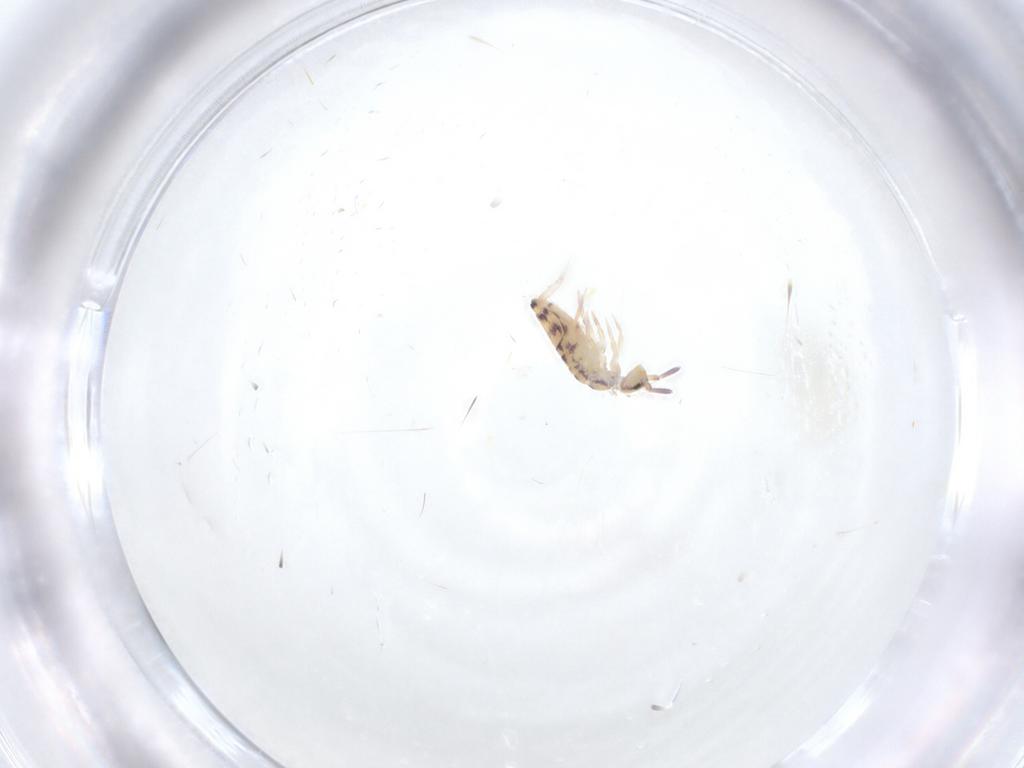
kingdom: Animalia
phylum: Arthropoda
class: Collembola
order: Entomobryomorpha
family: Entomobryidae
